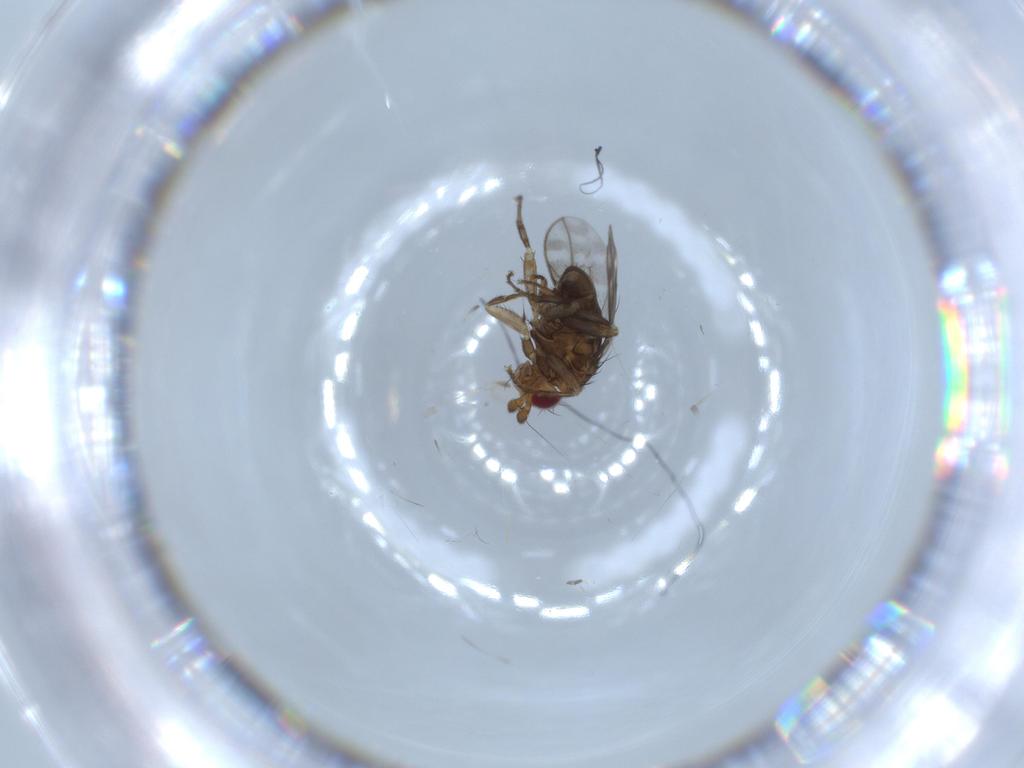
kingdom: Animalia
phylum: Arthropoda
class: Insecta
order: Diptera
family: Sphaeroceridae
